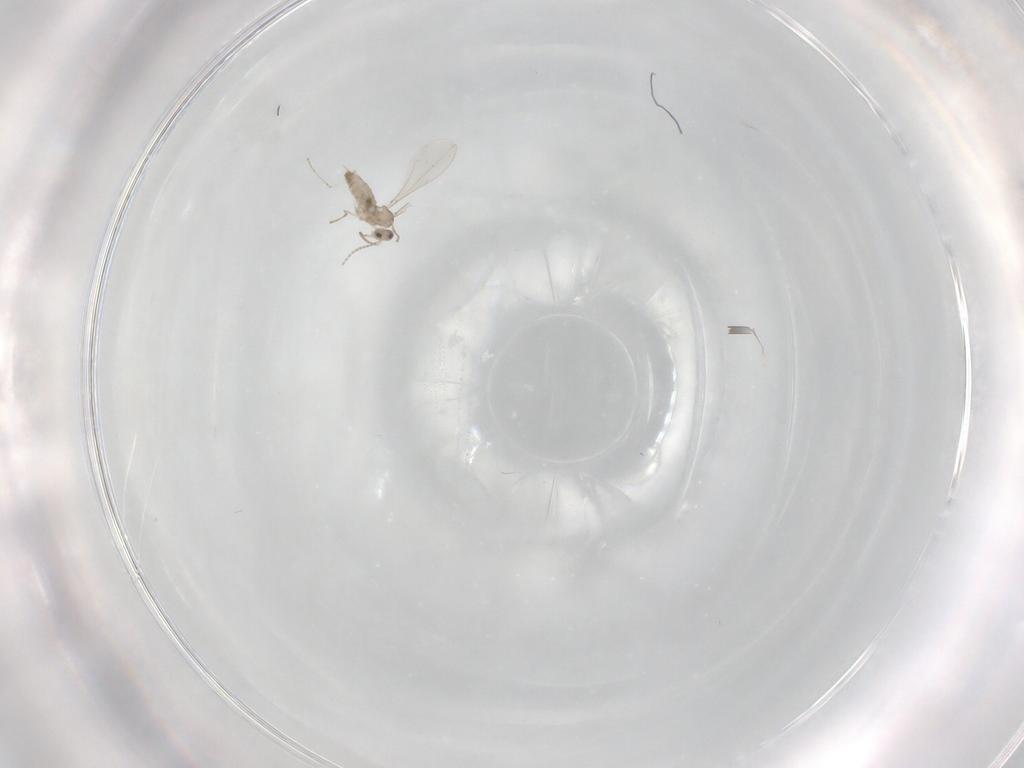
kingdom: Animalia
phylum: Arthropoda
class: Insecta
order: Diptera
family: Cecidomyiidae
